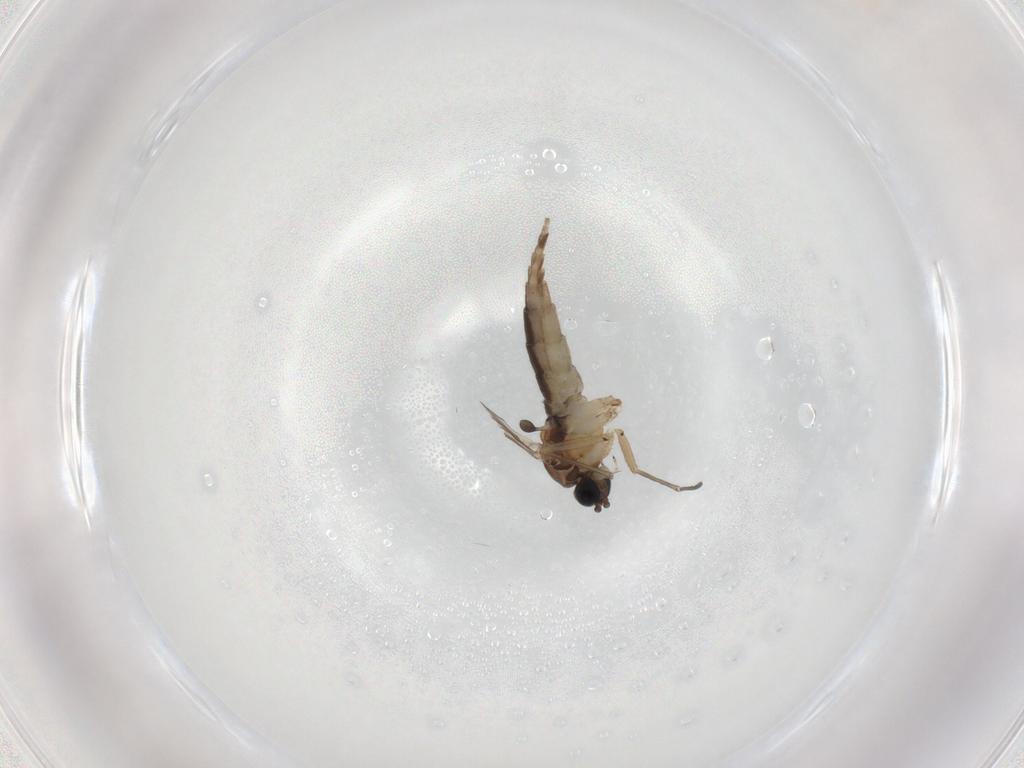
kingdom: Animalia
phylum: Arthropoda
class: Insecta
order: Diptera
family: Sciaridae
